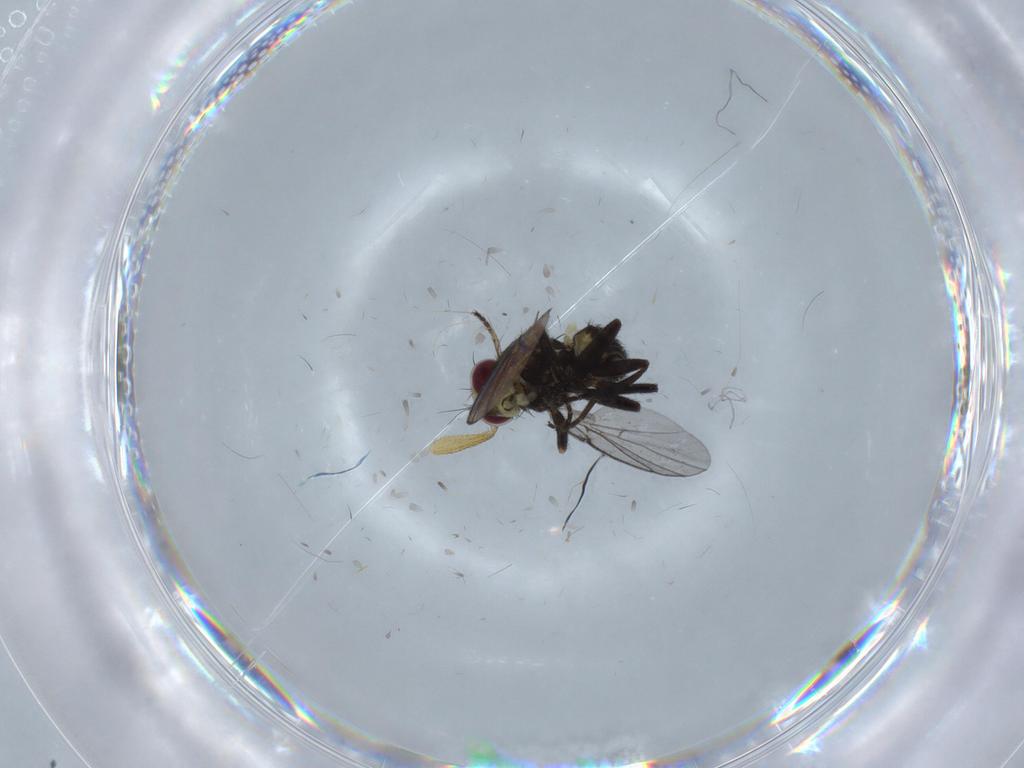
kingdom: Animalia
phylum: Arthropoda
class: Insecta
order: Diptera
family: Agromyzidae
